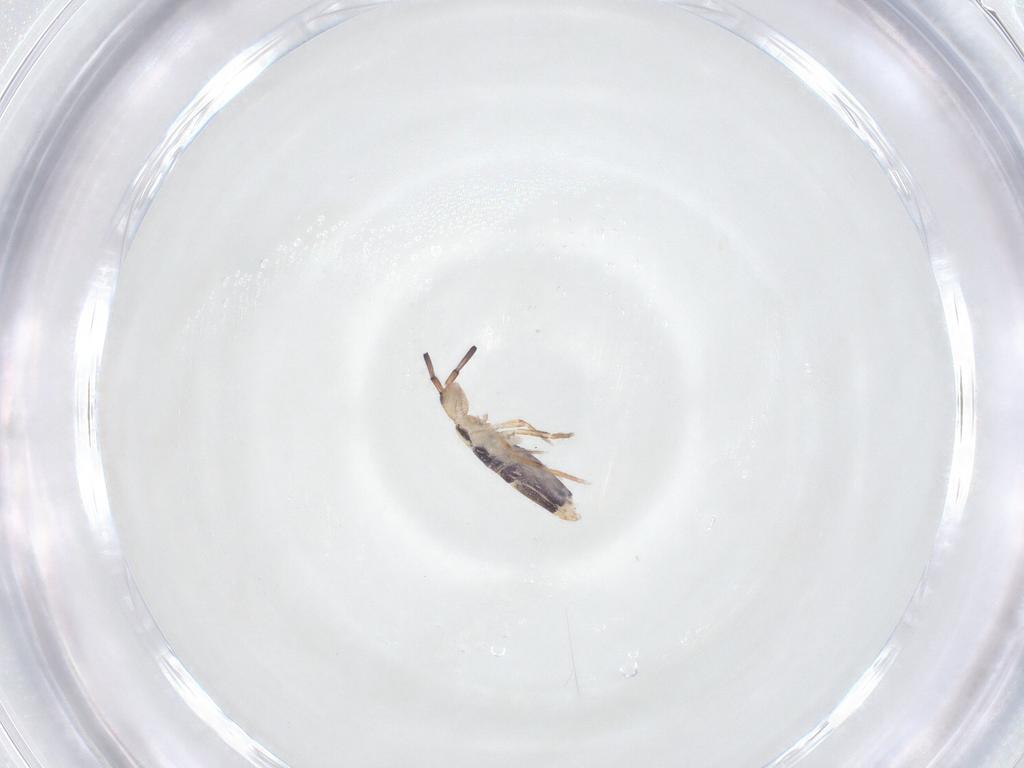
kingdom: Animalia
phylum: Arthropoda
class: Collembola
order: Entomobryomorpha
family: Entomobryidae
